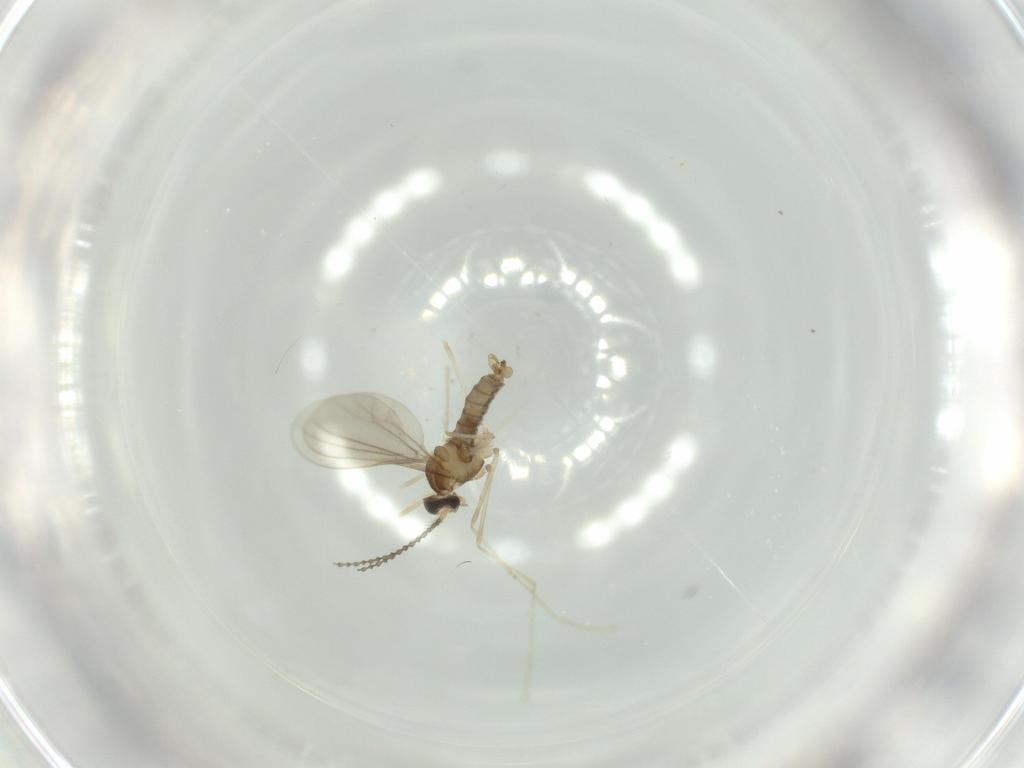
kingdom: Animalia
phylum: Arthropoda
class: Insecta
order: Diptera
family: Cecidomyiidae
